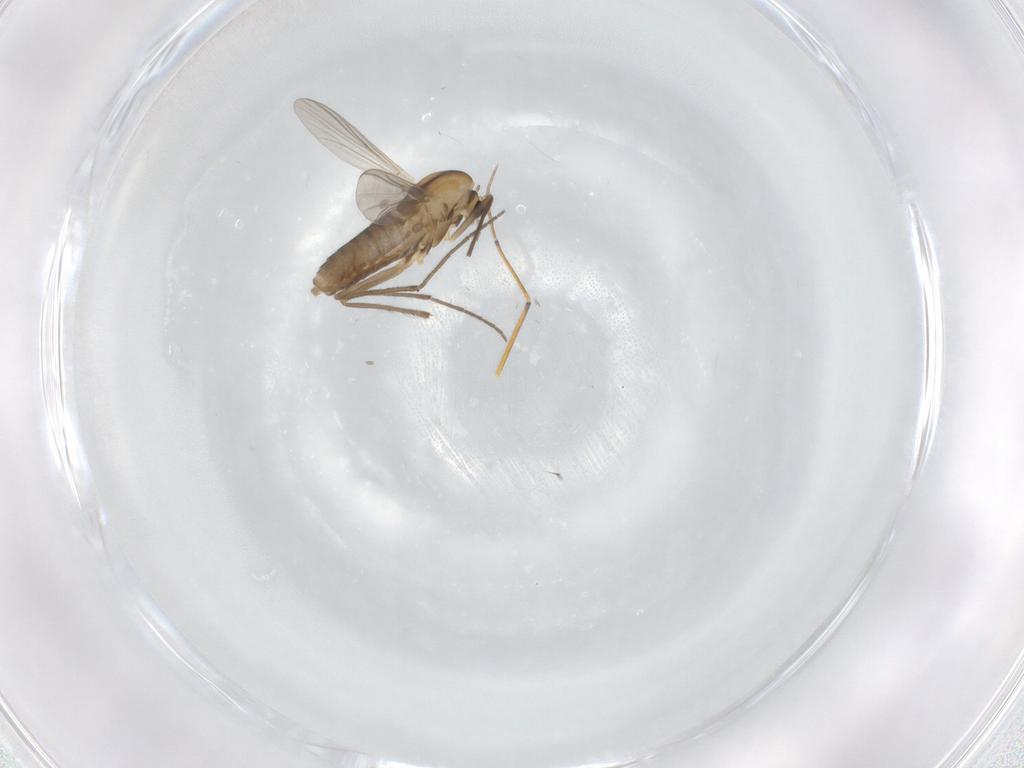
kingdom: Animalia
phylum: Arthropoda
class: Insecta
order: Diptera
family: Chironomidae
